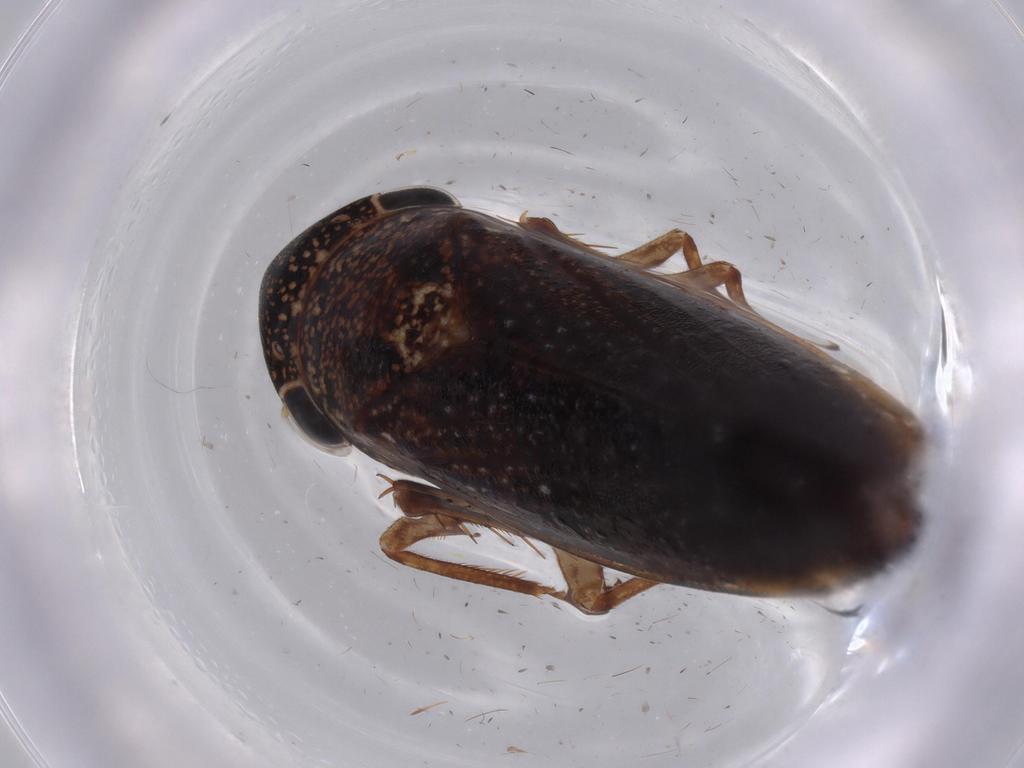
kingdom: Animalia
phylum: Arthropoda
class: Insecta
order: Hemiptera
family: Cicadellidae
